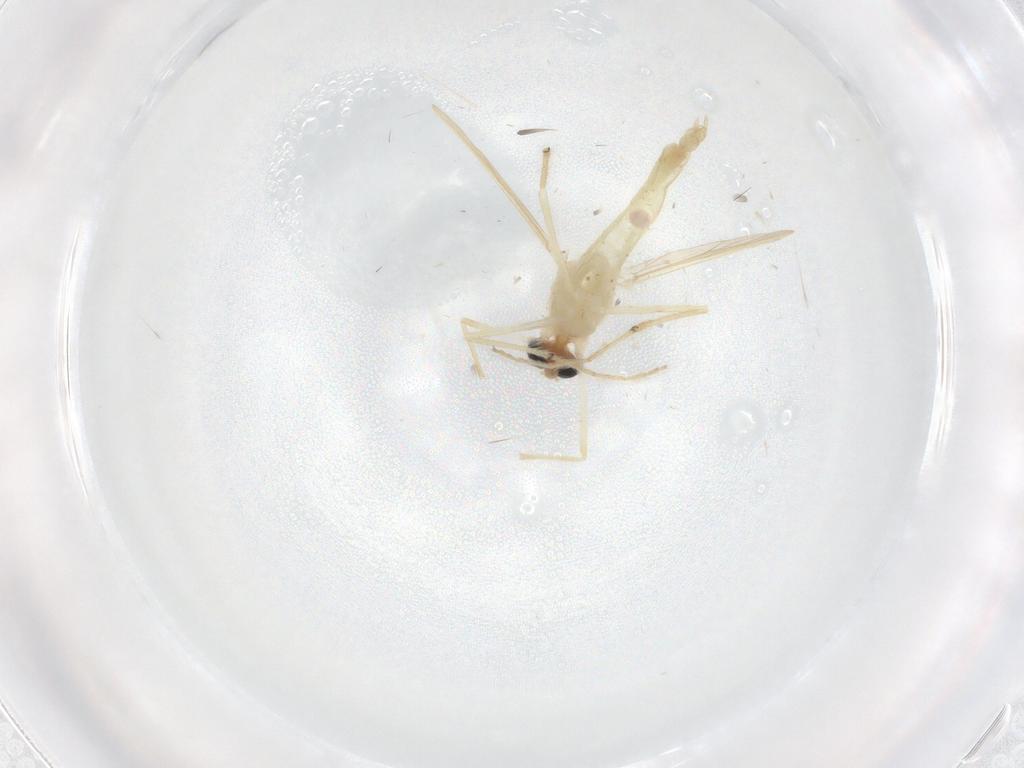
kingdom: Animalia
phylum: Arthropoda
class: Insecta
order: Diptera
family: Chironomidae
